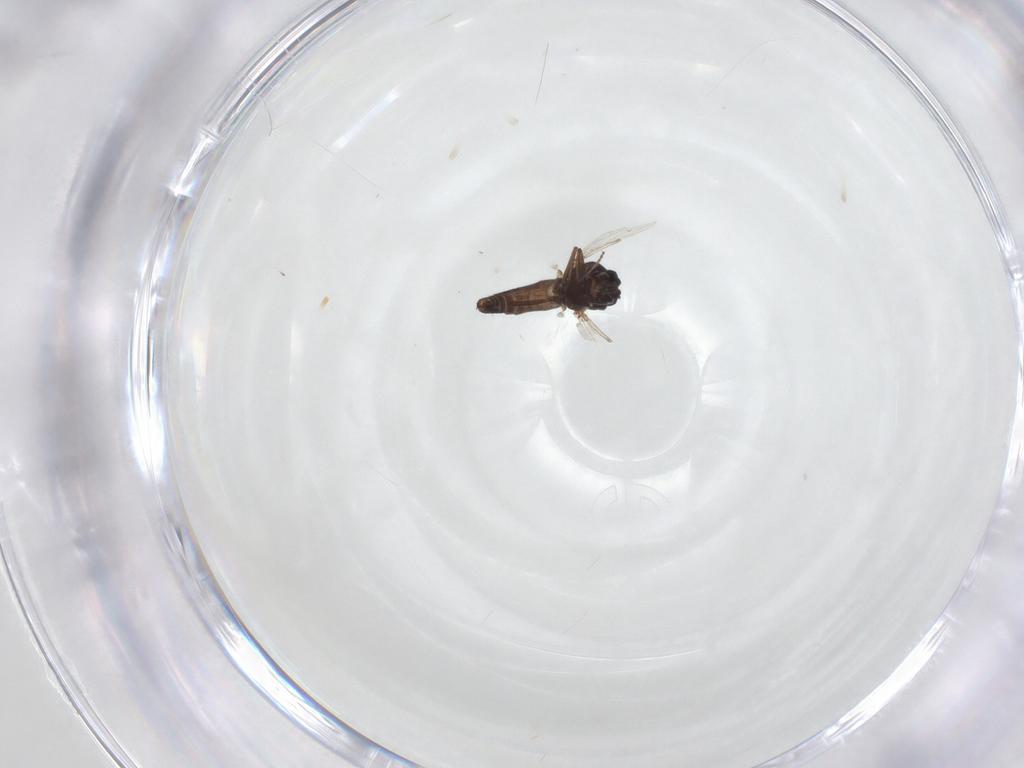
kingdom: Animalia
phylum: Arthropoda
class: Insecta
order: Diptera
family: Ceratopogonidae
